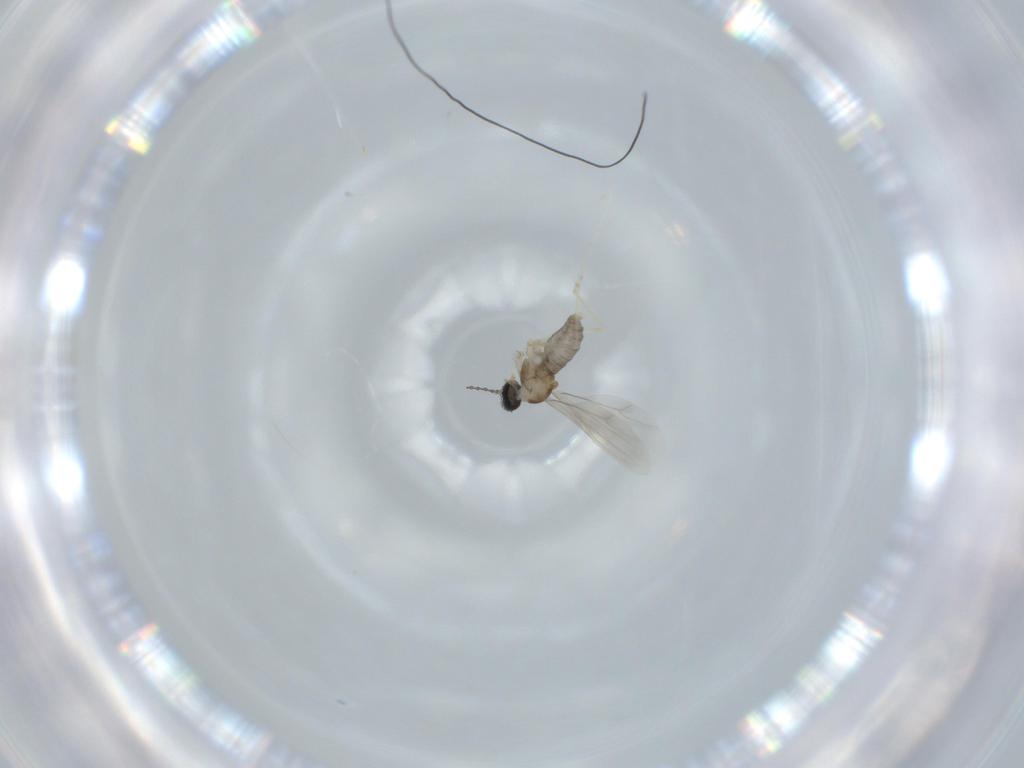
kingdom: Animalia
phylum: Arthropoda
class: Insecta
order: Diptera
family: Cecidomyiidae
